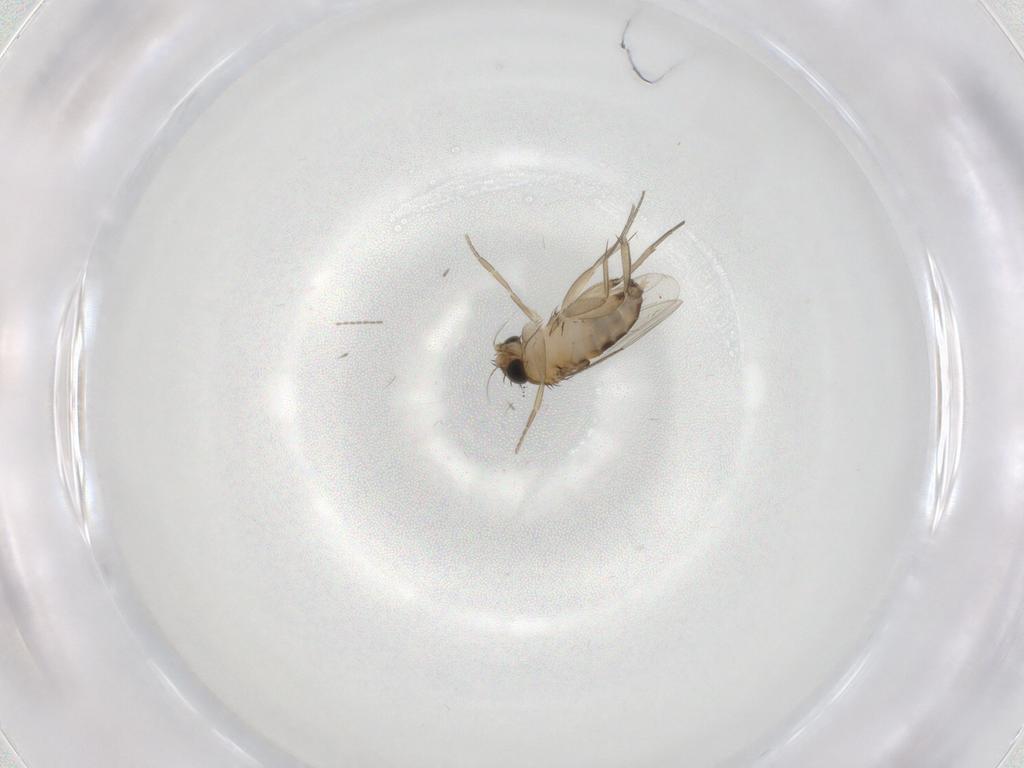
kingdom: Animalia
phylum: Arthropoda
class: Insecta
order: Diptera
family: Phoridae
